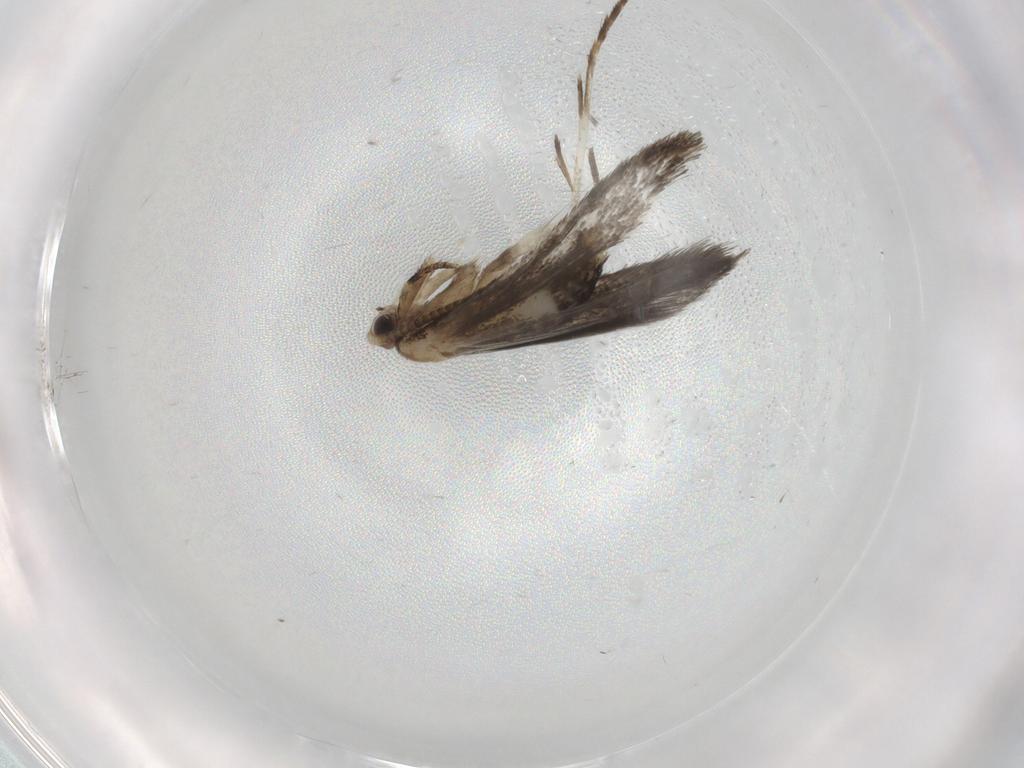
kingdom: Animalia
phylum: Arthropoda
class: Insecta
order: Lepidoptera
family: Tineidae
